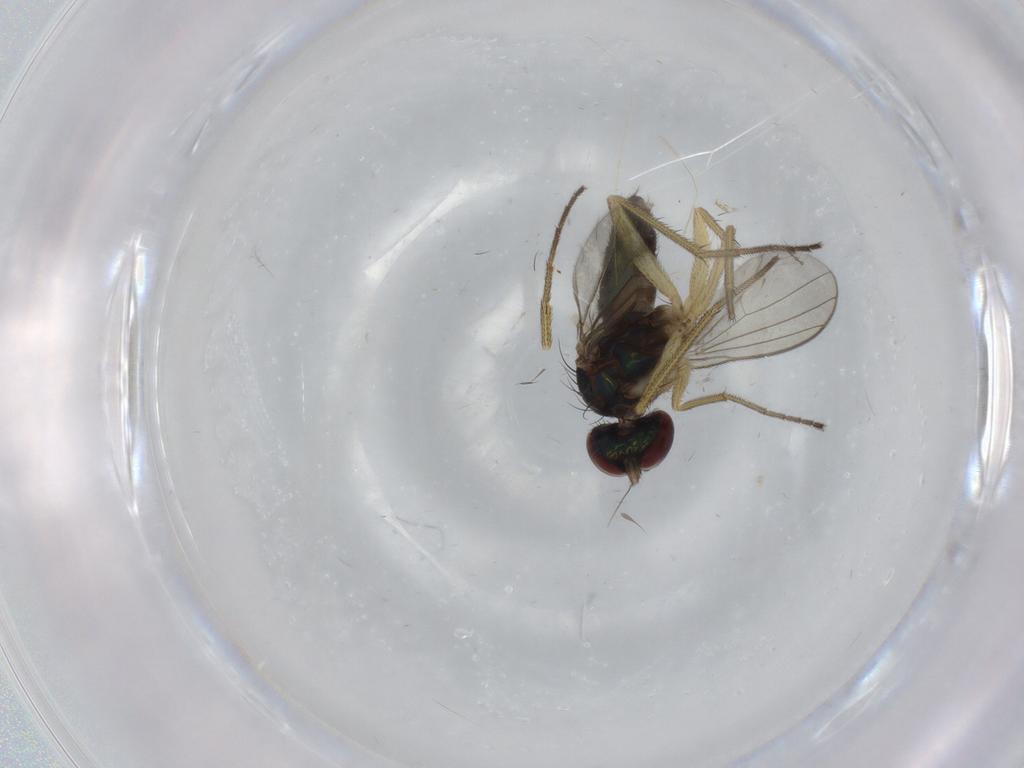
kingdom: Animalia
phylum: Arthropoda
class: Insecta
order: Diptera
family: Dolichopodidae
